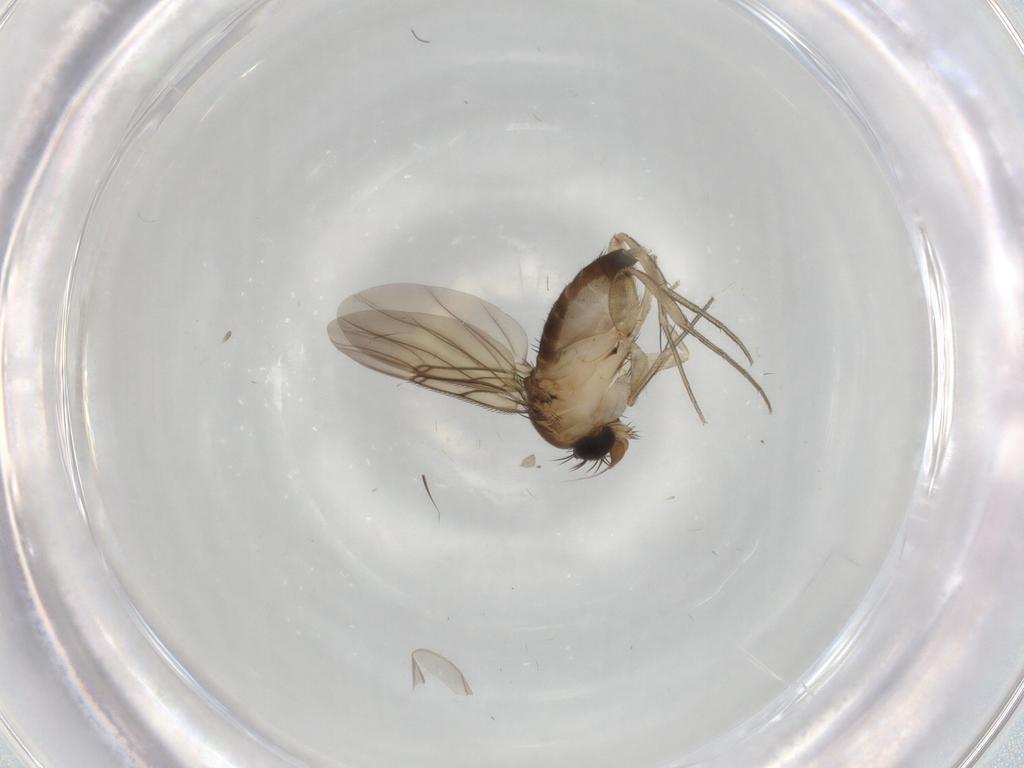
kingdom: Animalia
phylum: Arthropoda
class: Insecta
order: Diptera
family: Phoridae
